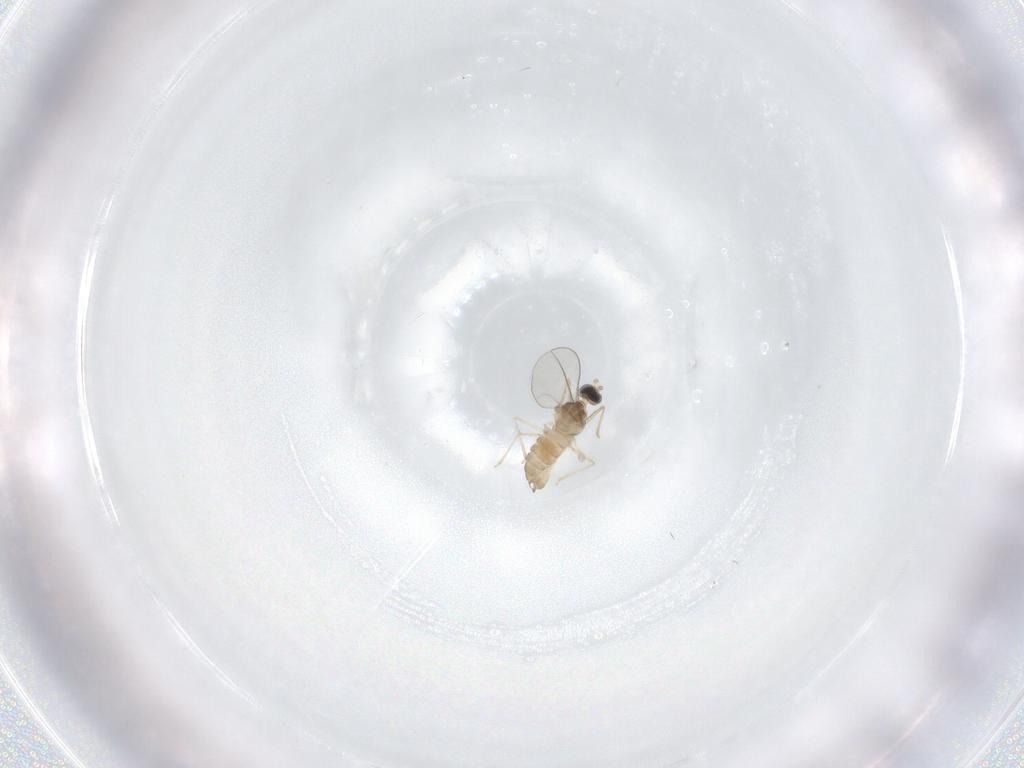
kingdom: Animalia
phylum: Arthropoda
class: Insecta
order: Diptera
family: Cecidomyiidae
